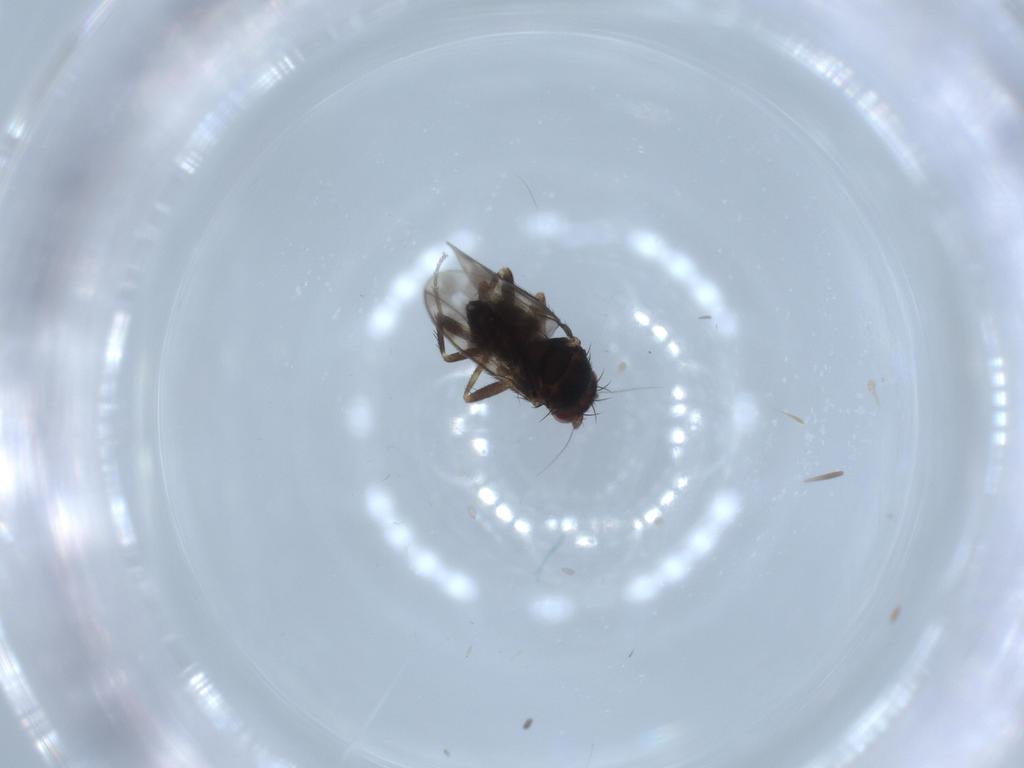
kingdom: Animalia
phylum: Arthropoda
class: Insecta
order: Diptera
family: Sphaeroceridae
